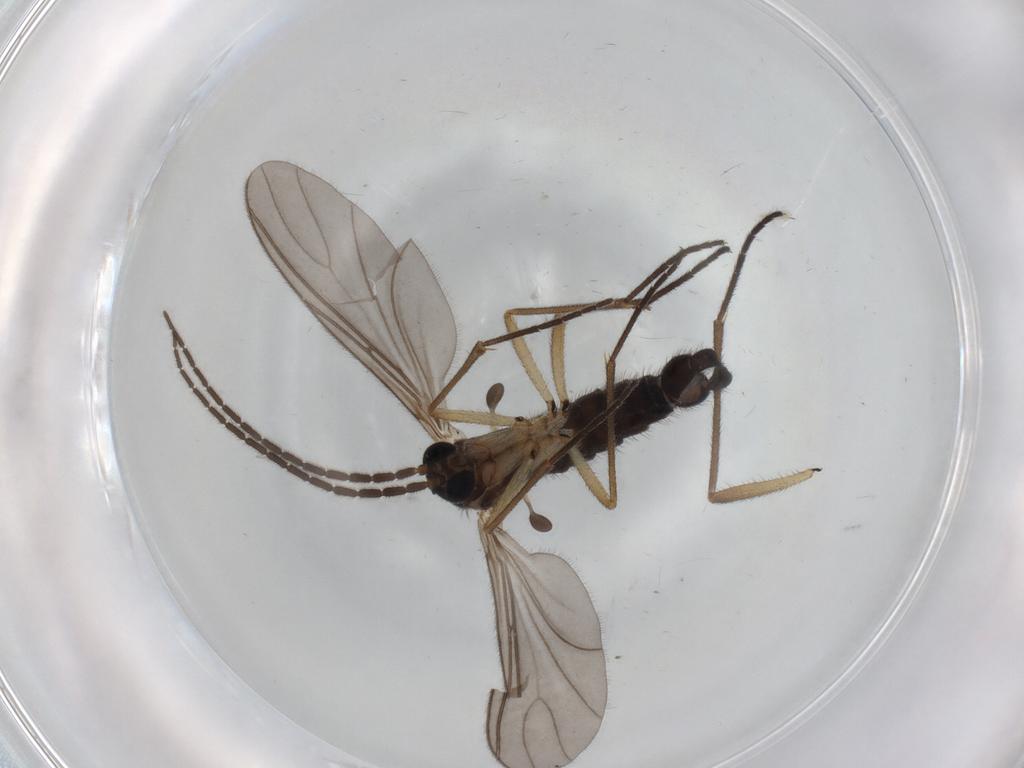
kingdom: Animalia
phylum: Arthropoda
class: Insecta
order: Diptera
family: Sciaridae
